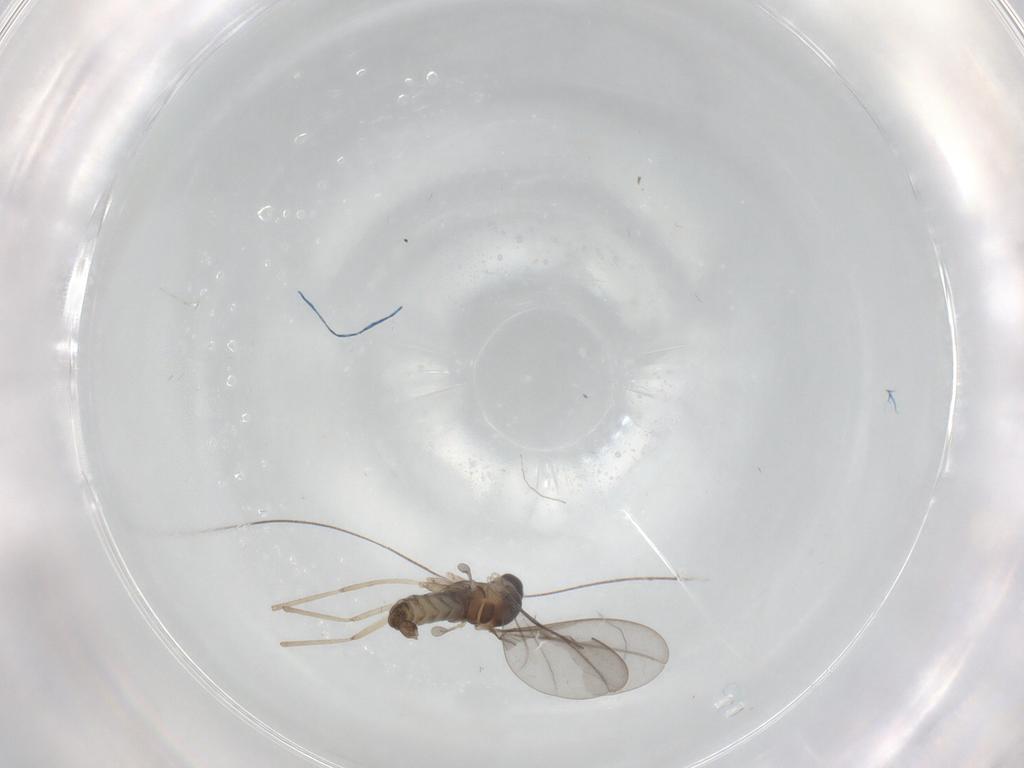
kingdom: Animalia
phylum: Arthropoda
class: Insecta
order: Diptera
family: Cecidomyiidae
